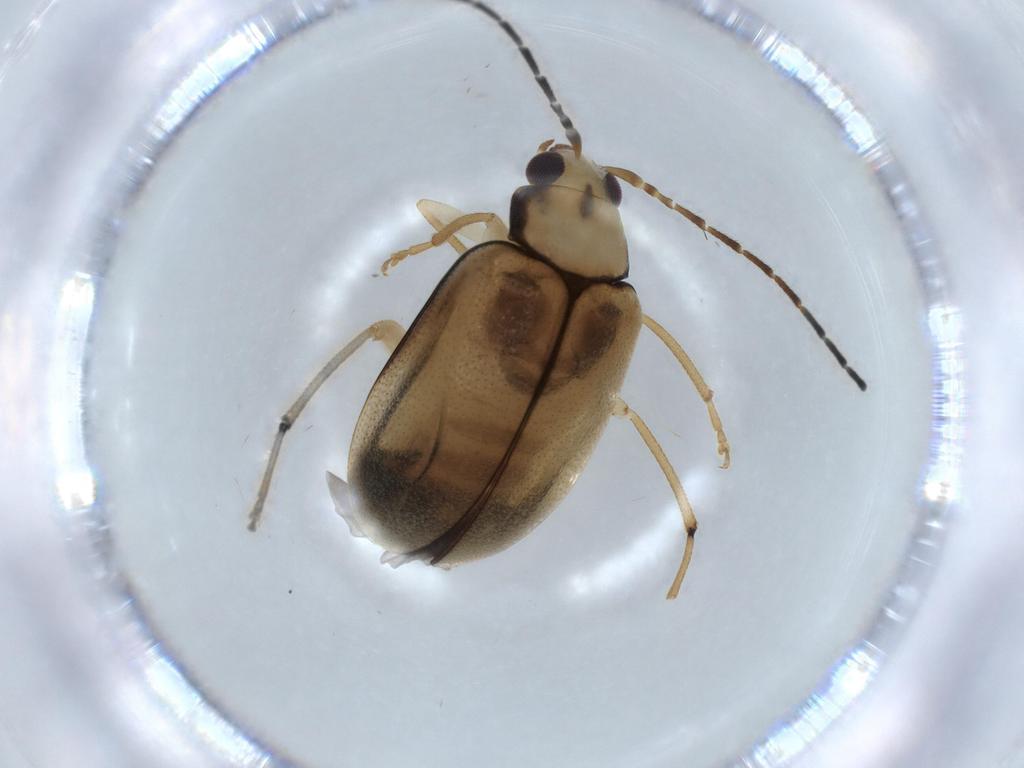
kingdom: Animalia
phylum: Arthropoda
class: Insecta
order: Coleoptera
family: Chrysomelidae
